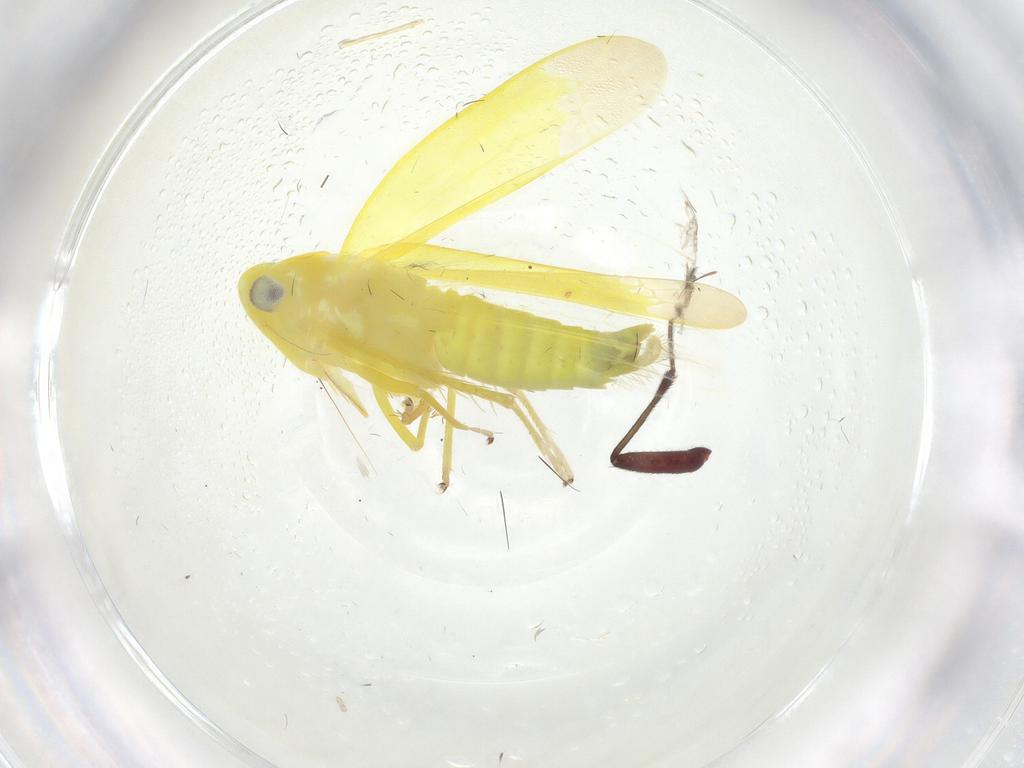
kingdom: Animalia
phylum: Arthropoda
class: Insecta
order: Hemiptera
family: Cicadellidae
